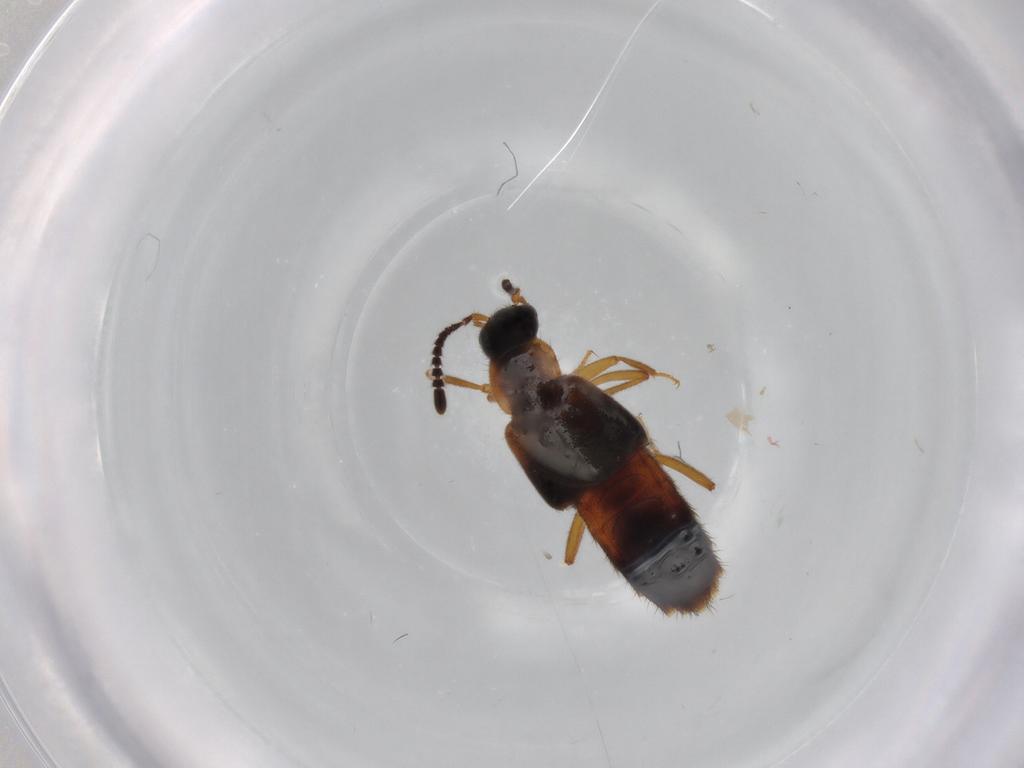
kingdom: Animalia
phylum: Arthropoda
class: Insecta
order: Coleoptera
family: Staphylinidae
